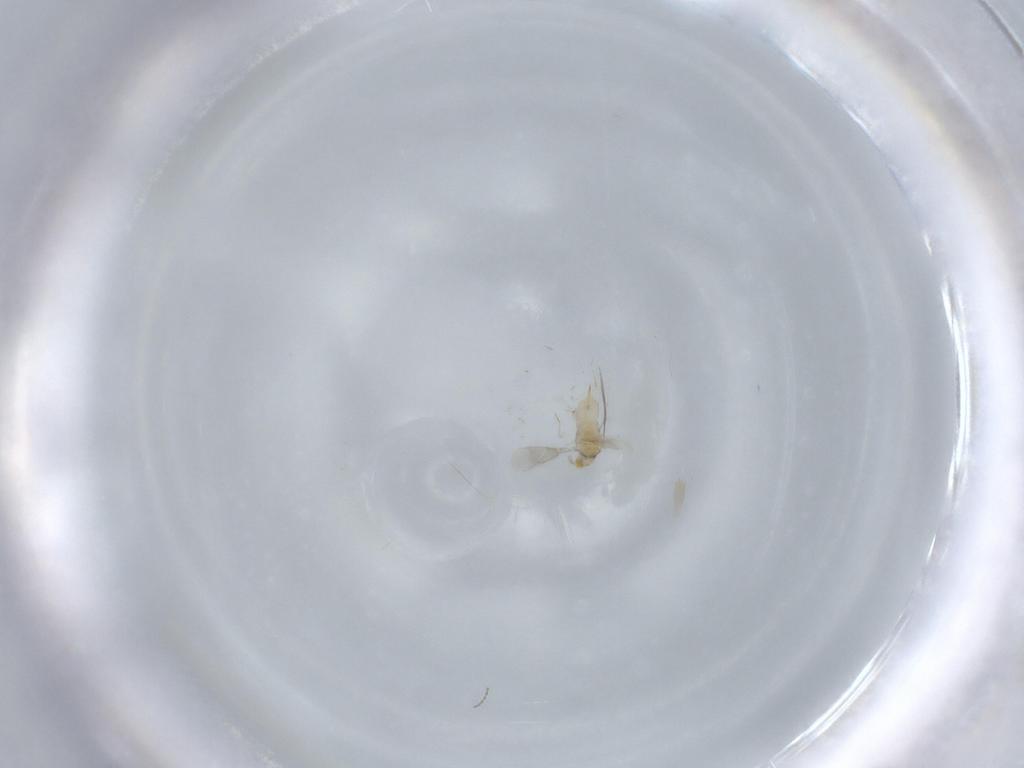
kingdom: Animalia
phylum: Arthropoda
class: Insecta
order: Hymenoptera
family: Aphelinidae
